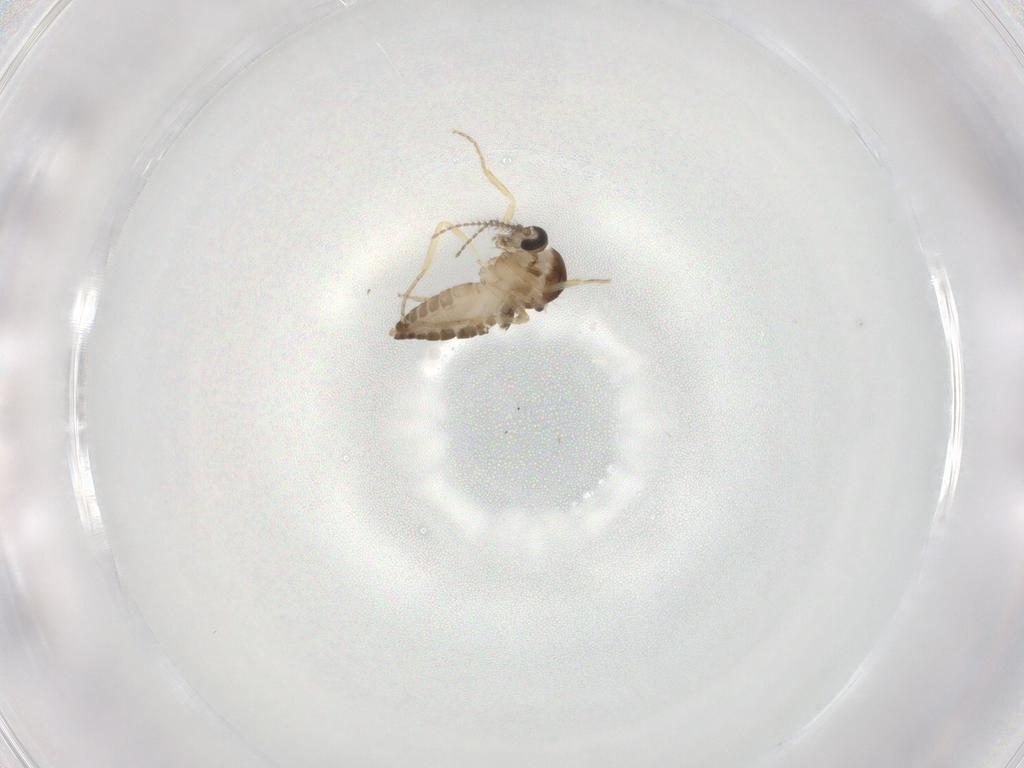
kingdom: Animalia
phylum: Arthropoda
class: Insecta
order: Diptera
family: Ceratopogonidae
